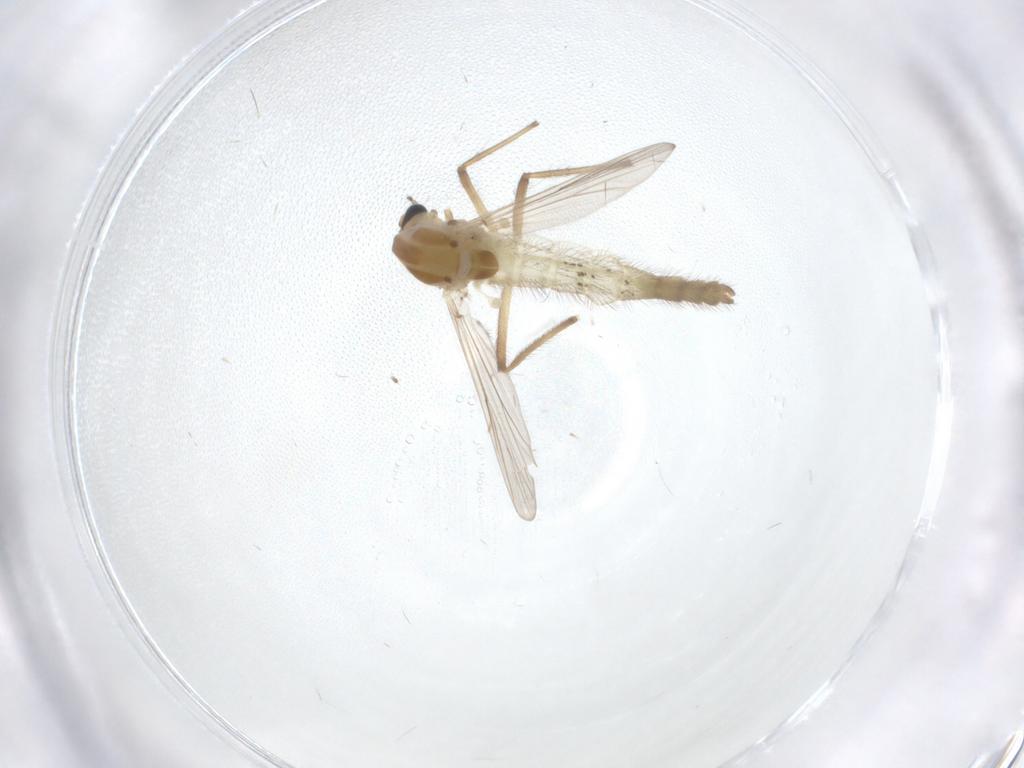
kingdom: Animalia
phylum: Arthropoda
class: Insecta
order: Diptera
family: Chironomidae
